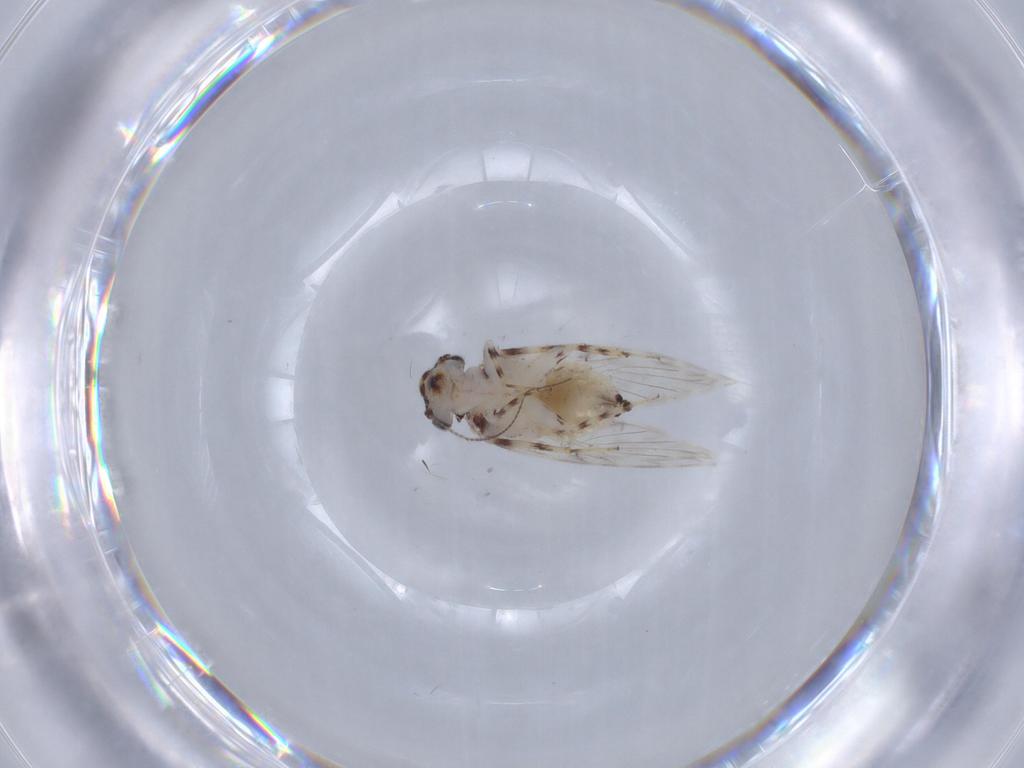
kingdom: Animalia
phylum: Arthropoda
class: Insecta
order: Psocodea
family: Lepidopsocidae
